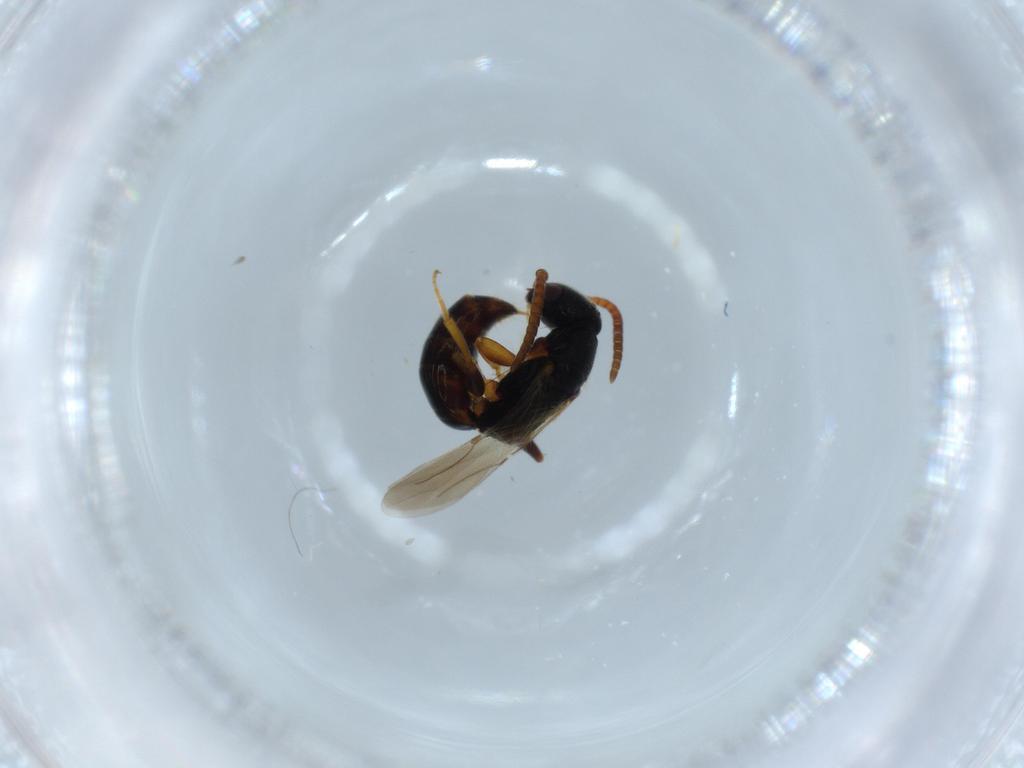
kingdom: Animalia
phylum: Arthropoda
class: Insecta
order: Hymenoptera
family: Bethylidae
